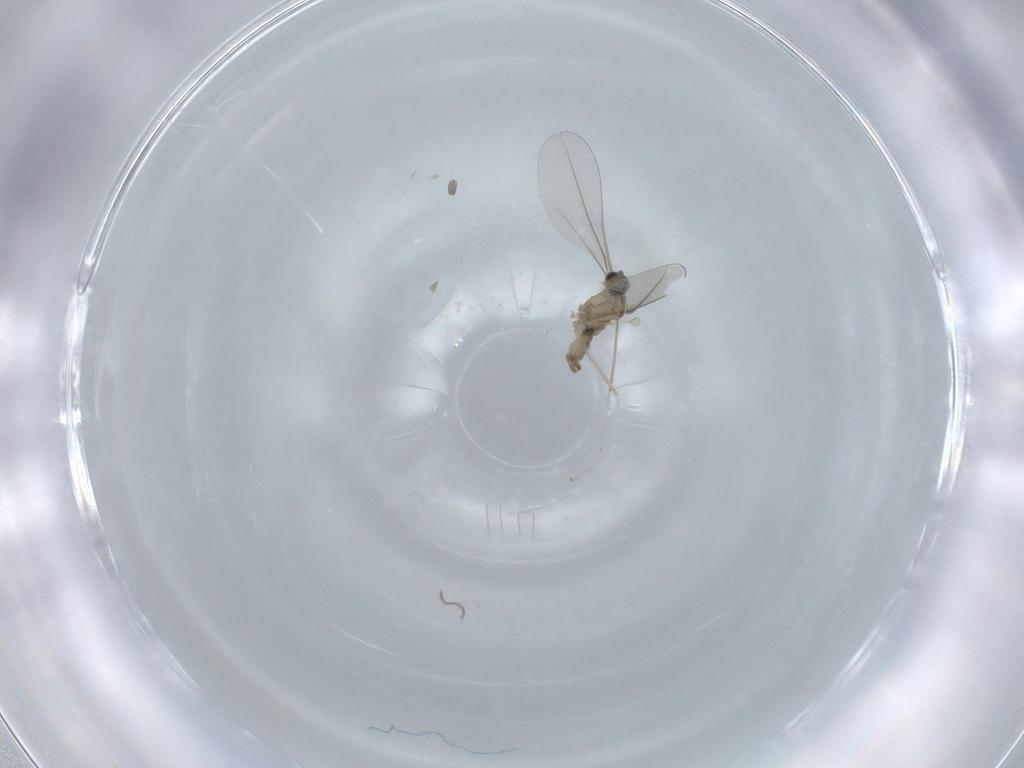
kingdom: Animalia
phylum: Arthropoda
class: Insecta
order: Diptera
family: Cecidomyiidae
